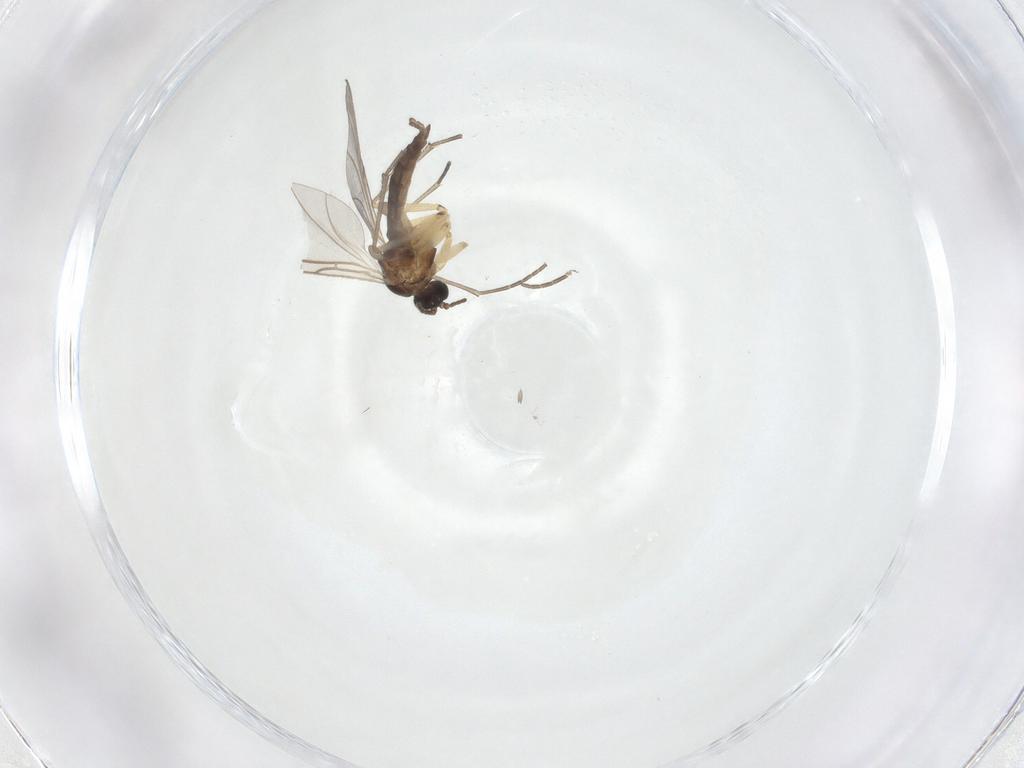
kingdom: Animalia
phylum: Arthropoda
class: Insecta
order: Diptera
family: Sciaridae
